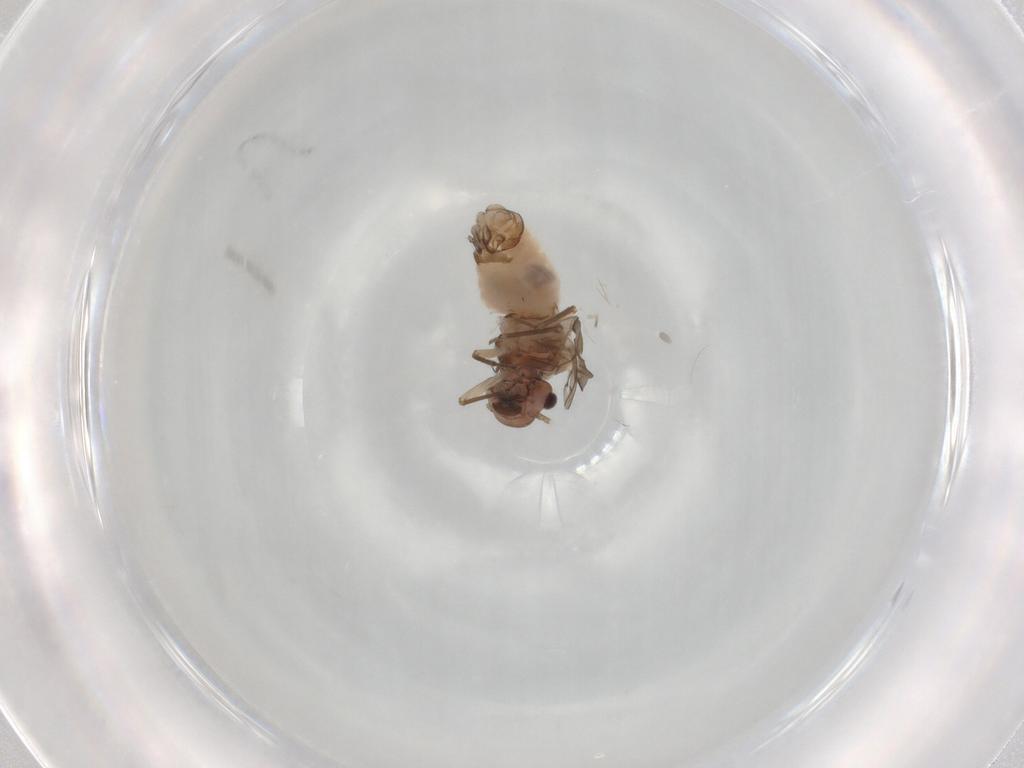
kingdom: Animalia
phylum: Arthropoda
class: Insecta
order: Psocodea
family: Peripsocidae
